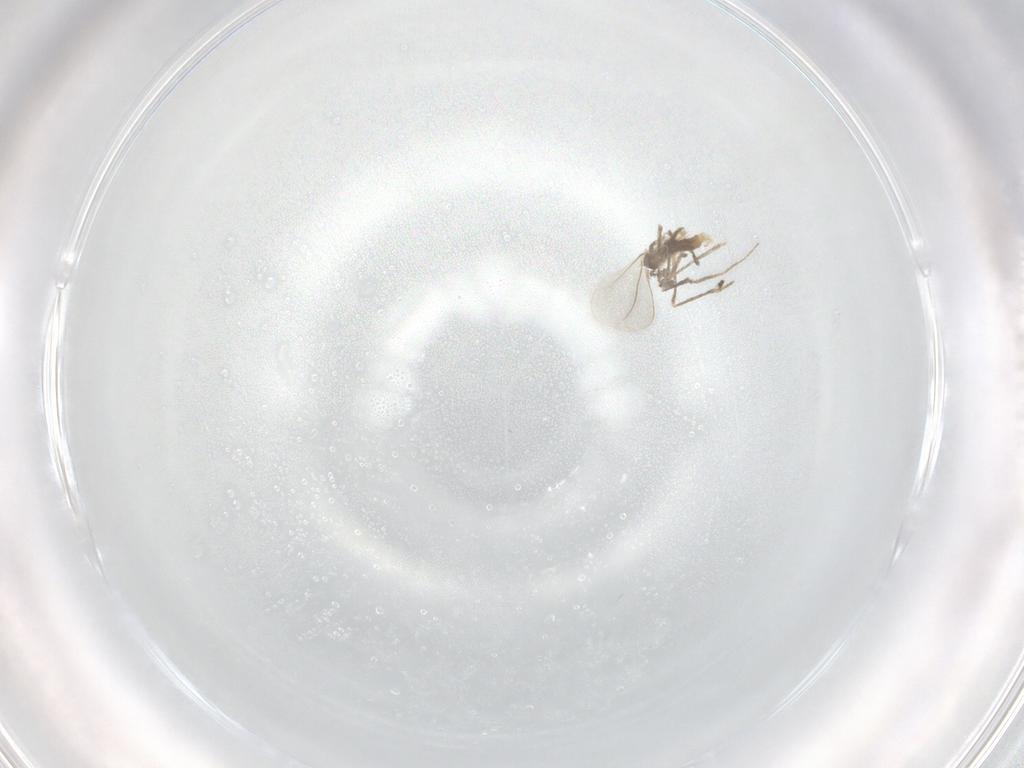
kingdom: Animalia
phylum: Arthropoda
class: Insecta
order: Diptera
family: Cecidomyiidae
